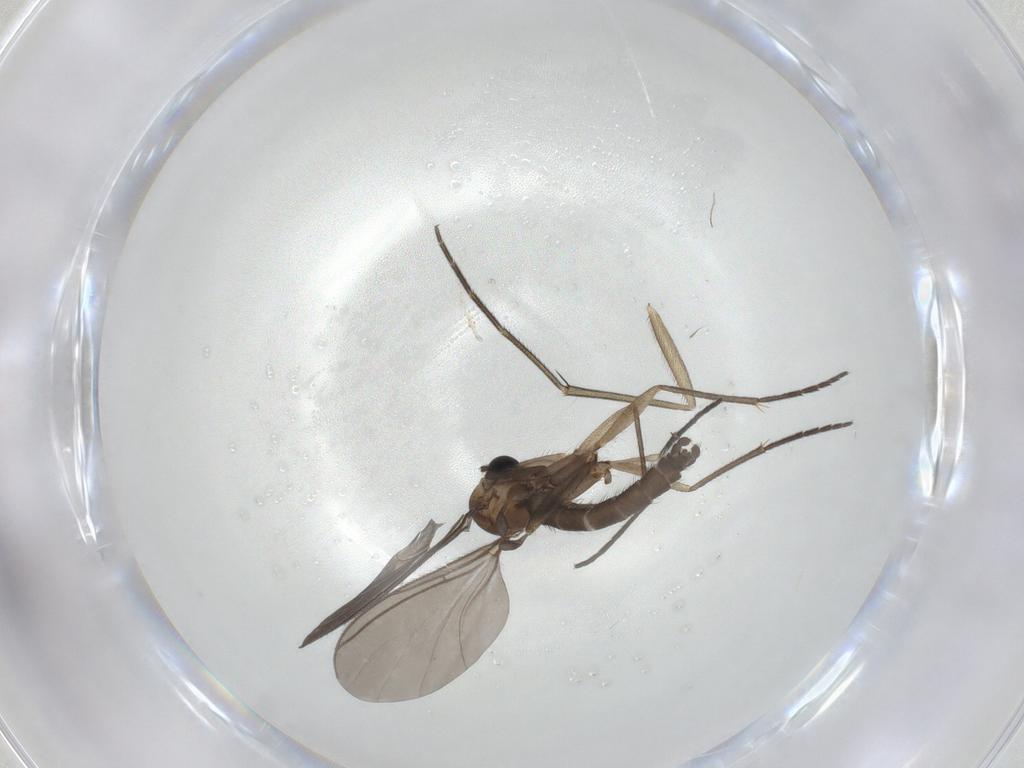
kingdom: Animalia
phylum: Arthropoda
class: Insecta
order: Diptera
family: Sciaridae
